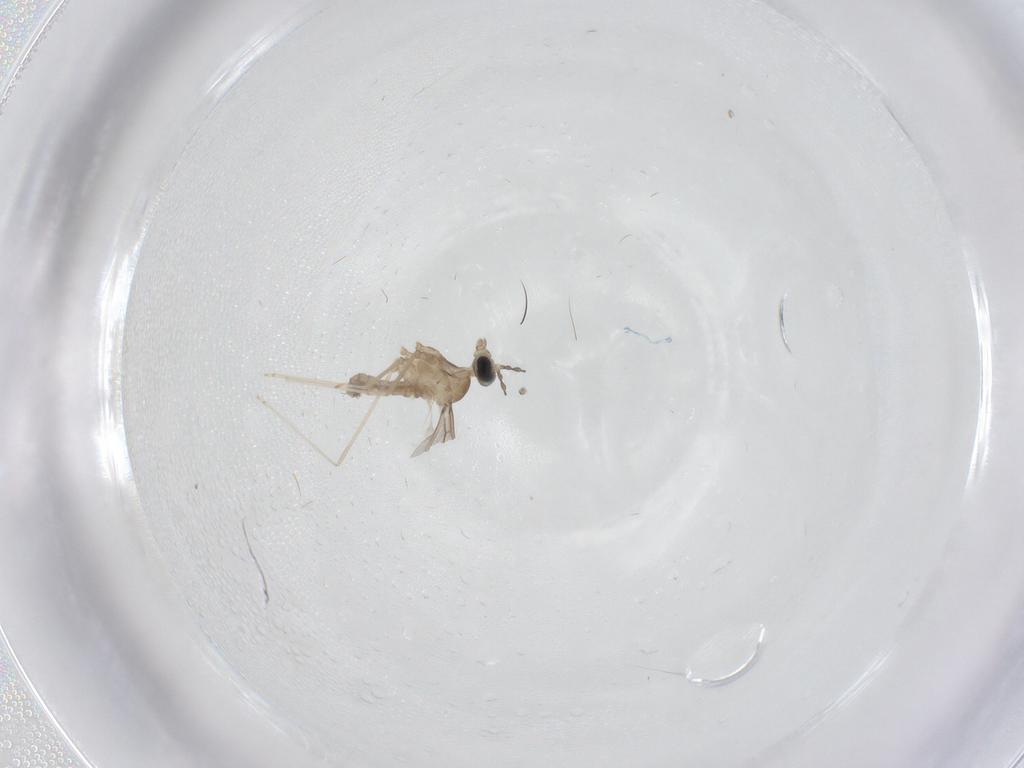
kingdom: Animalia
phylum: Arthropoda
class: Insecta
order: Diptera
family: Cecidomyiidae
